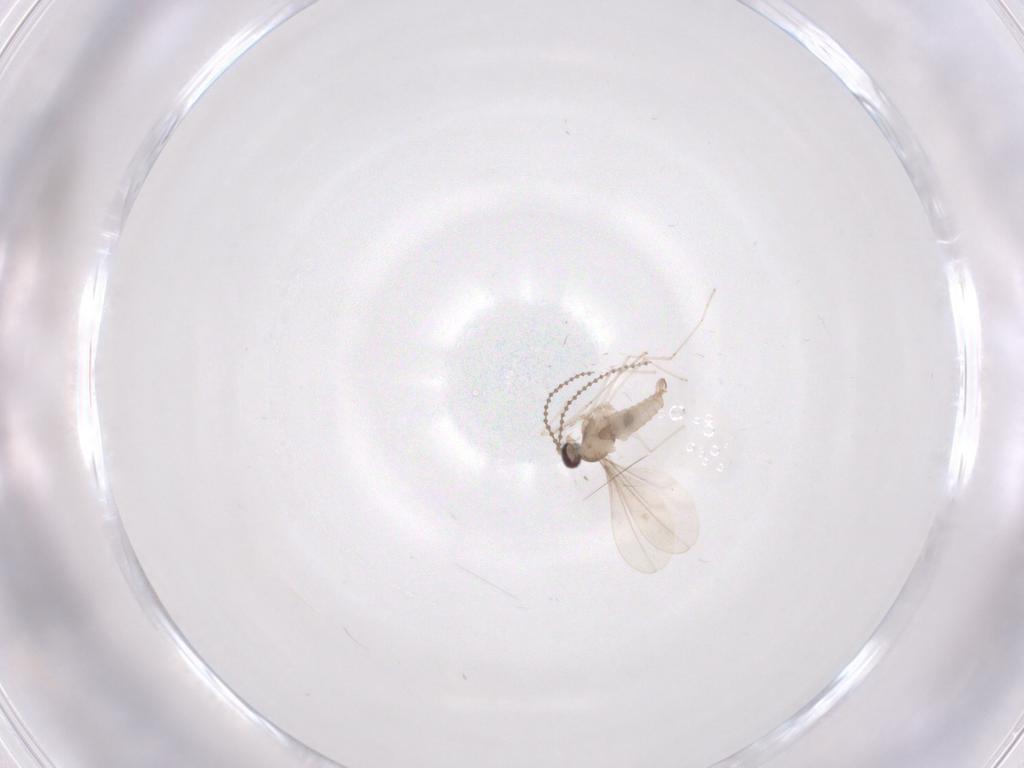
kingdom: Animalia
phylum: Arthropoda
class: Insecta
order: Diptera
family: Cecidomyiidae
